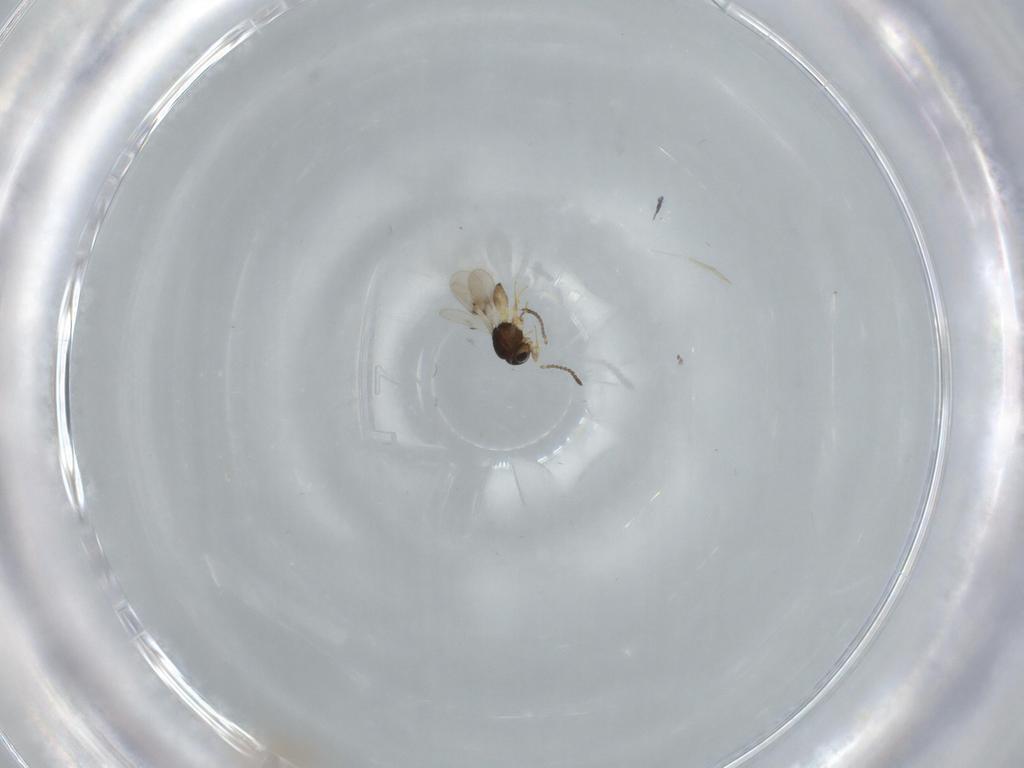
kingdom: Animalia
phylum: Arthropoda
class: Insecta
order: Hymenoptera
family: Scelionidae
